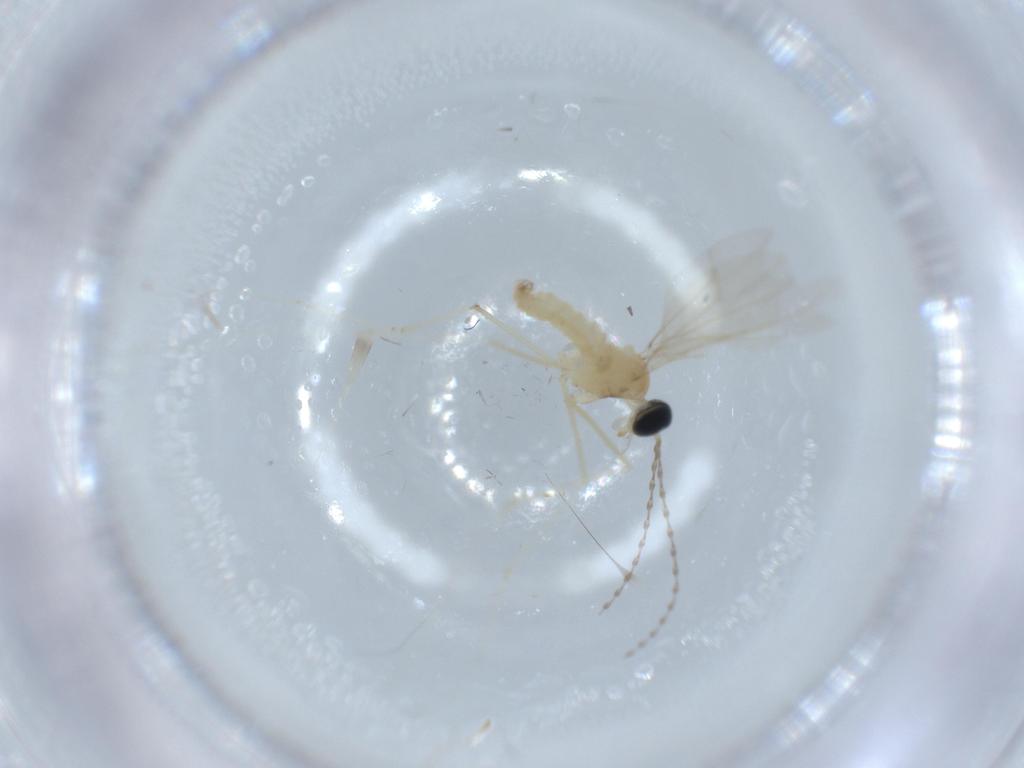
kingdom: Animalia
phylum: Arthropoda
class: Insecta
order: Diptera
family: Cecidomyiidae
